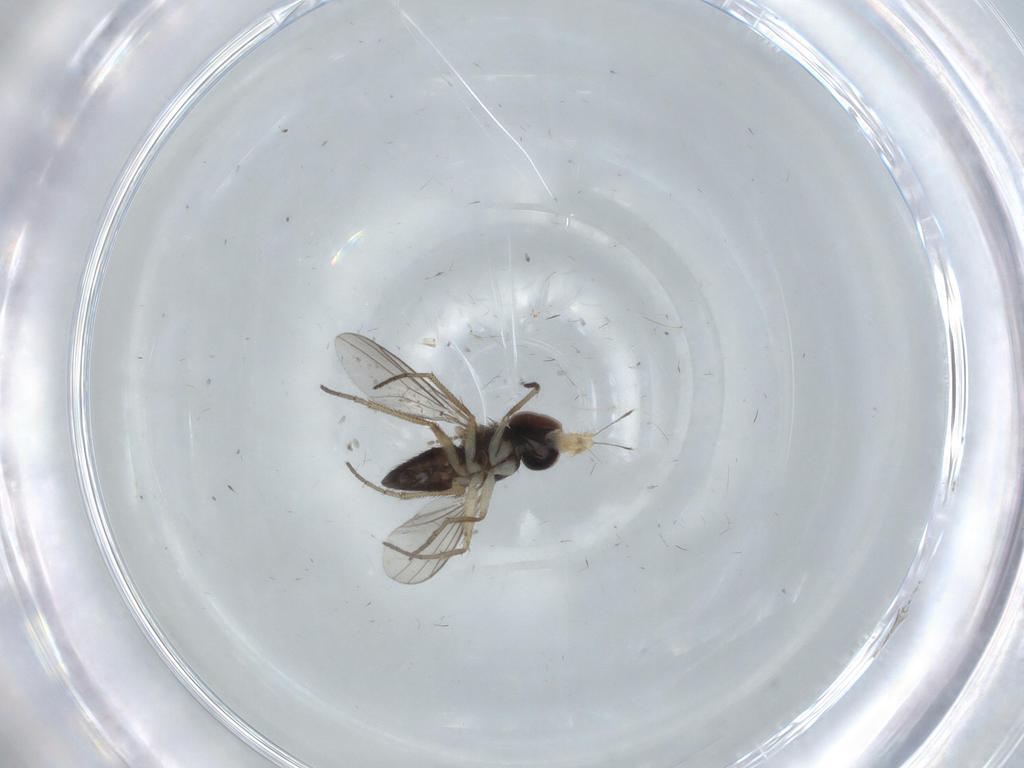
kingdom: Animalia
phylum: Arthropoda
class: Insecta
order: Diptera
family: Dolichopodidae
